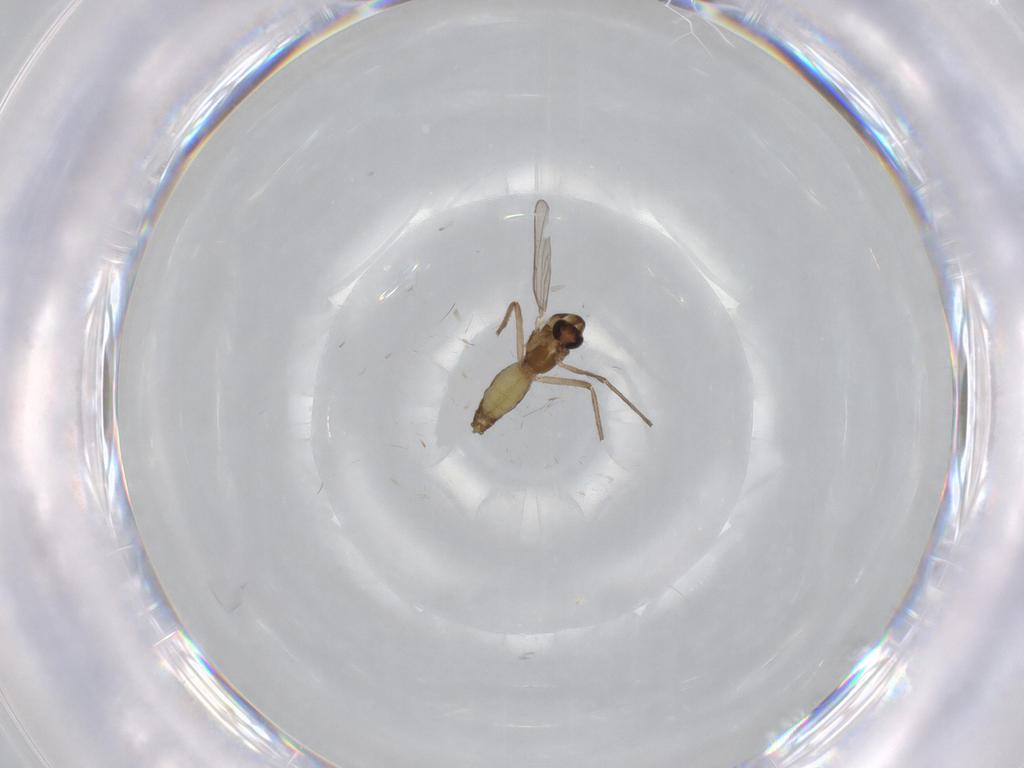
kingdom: Animalia
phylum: Arthropoda
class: Insecta
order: Diptera
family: Chironomidae
